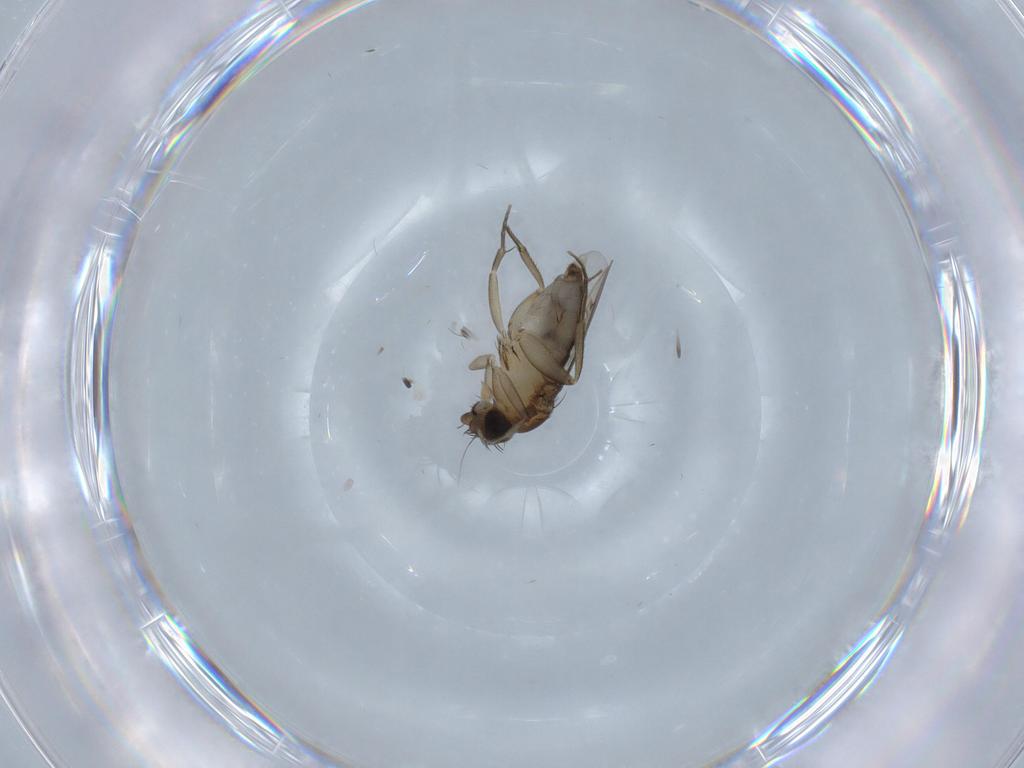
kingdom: Animalia
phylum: Arthropoda
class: Insecta
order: Diptera
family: Phoridae
